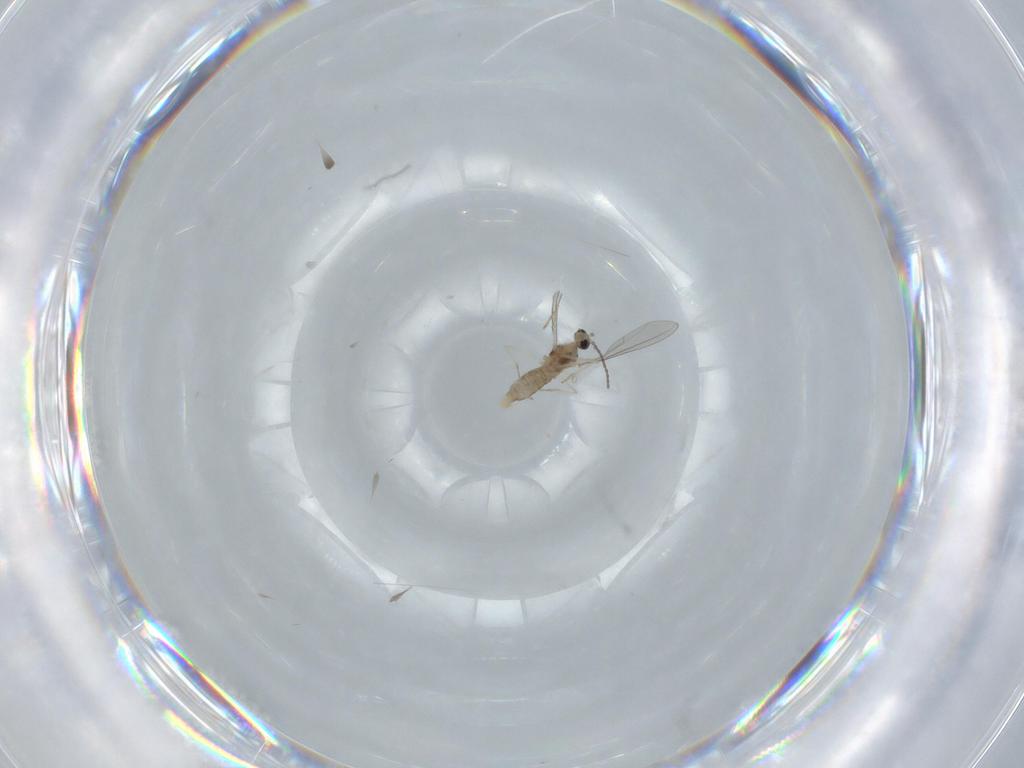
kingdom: Animalia
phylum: Arthropoda
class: Insecta
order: Diptera
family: Cecidomyiidae
